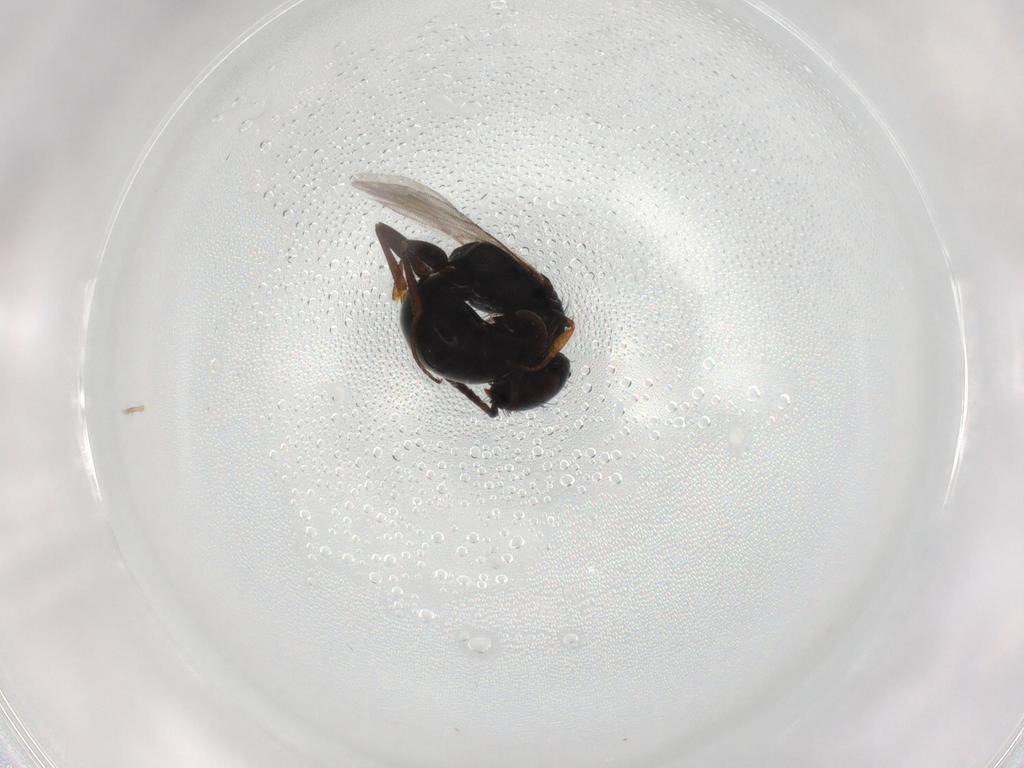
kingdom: Animalia
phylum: Arthropoda
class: Insecta
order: Hymenoptera
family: Bethylidae
